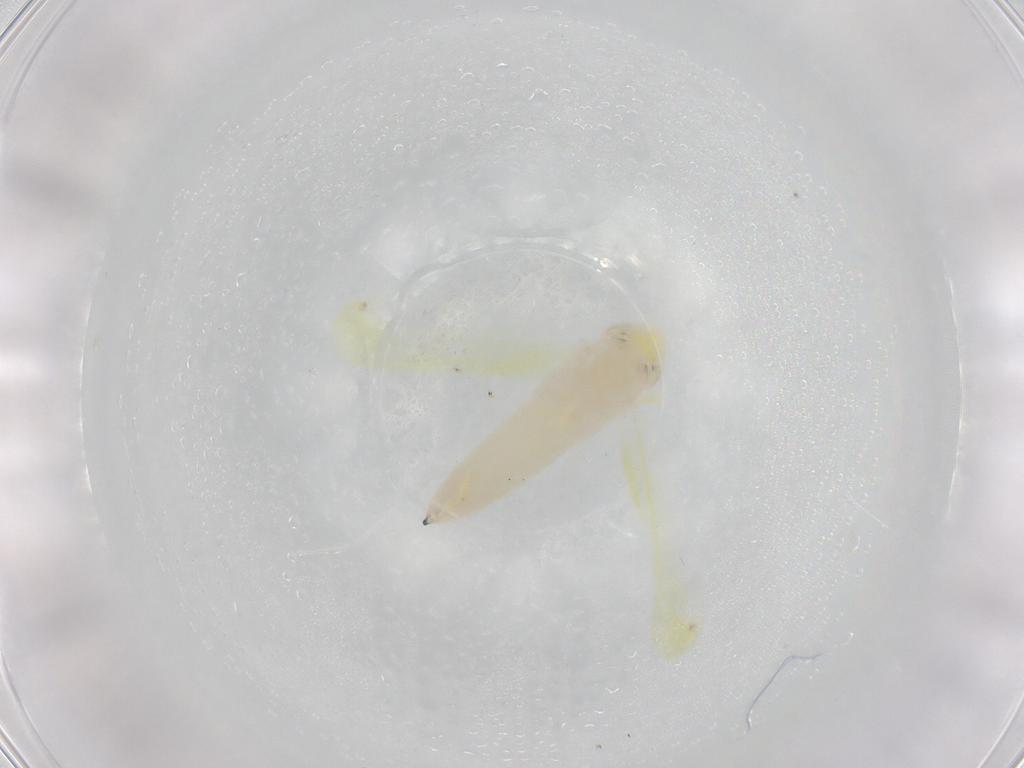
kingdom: Animalia
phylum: Arthropoda
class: Insecta
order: Hemiptera
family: Cicadellidae
